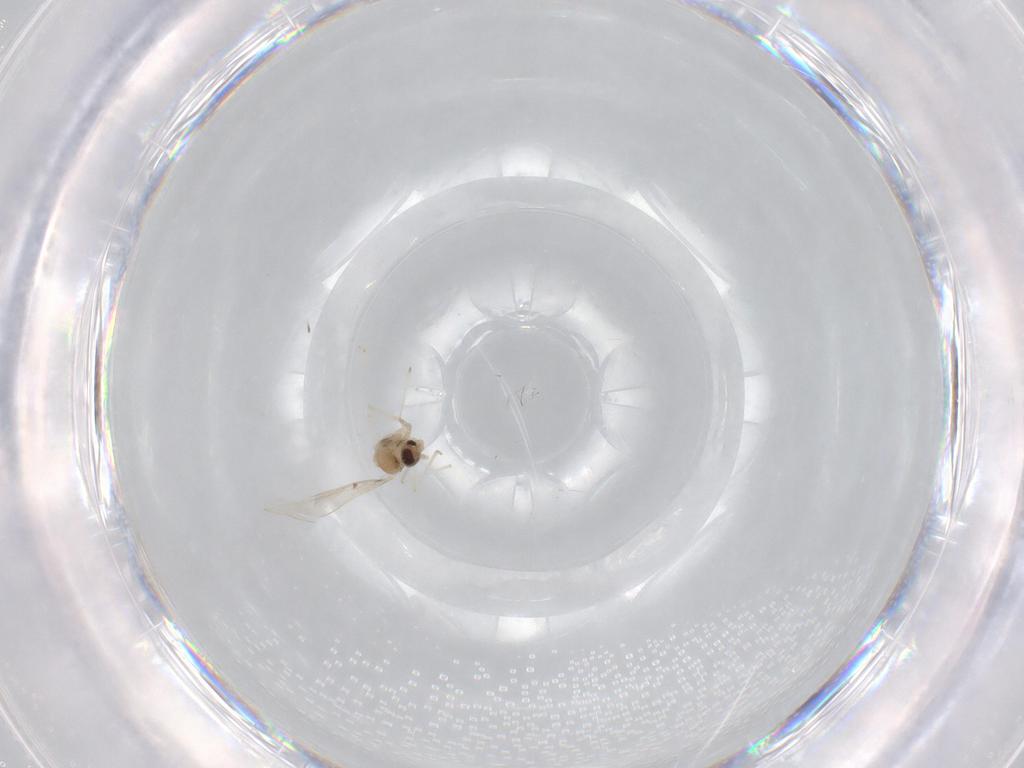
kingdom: Animalia
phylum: Arthropoda
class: Insecta
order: Diptera
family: Cecidomyiidae
